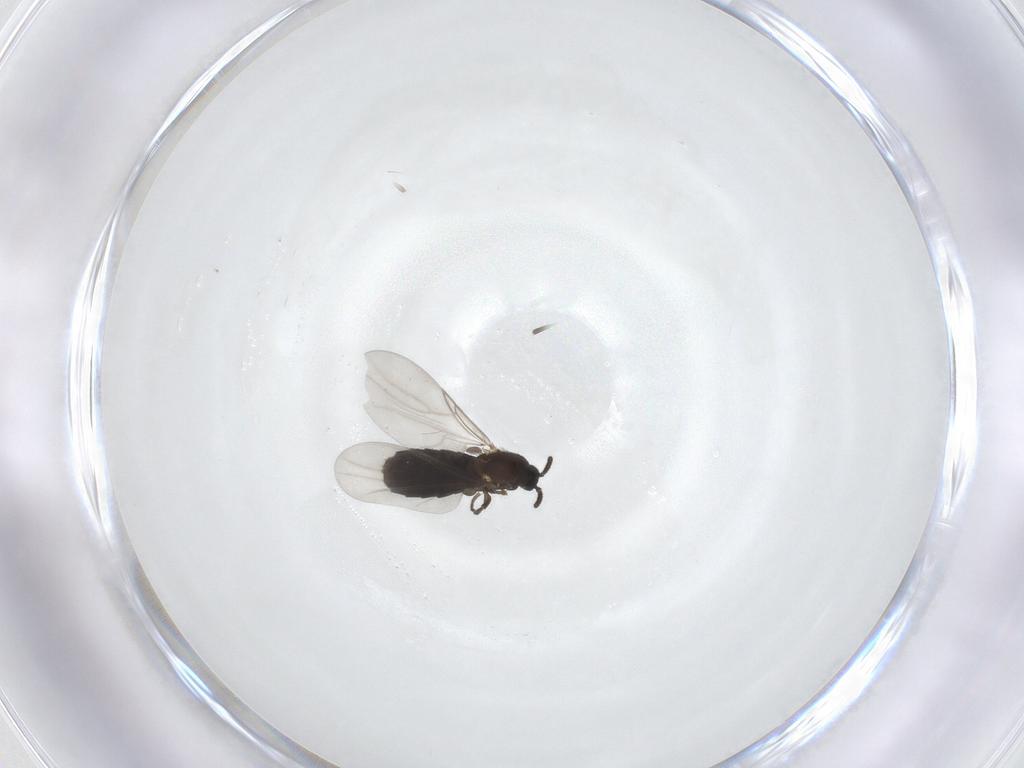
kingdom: Animalia
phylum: Arthropoda
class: Insecta
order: Diptera
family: Scatopsidae
